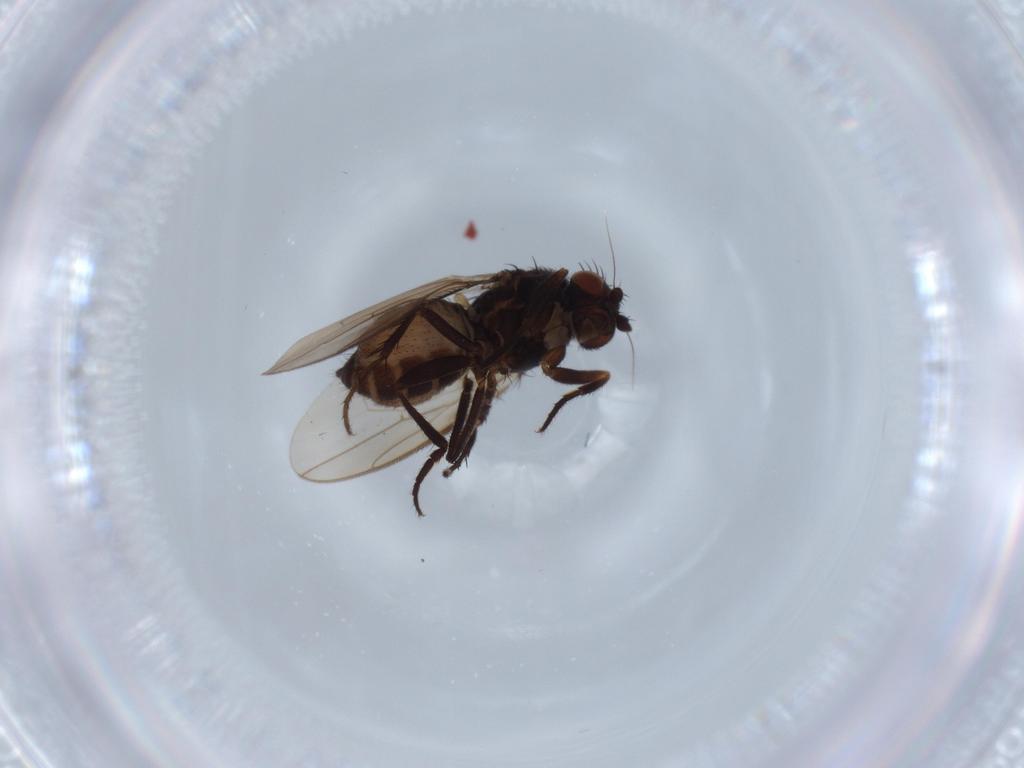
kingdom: Animalia
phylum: Arthropoda
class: Insecta
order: Diptera
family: Sphaeroceridae
